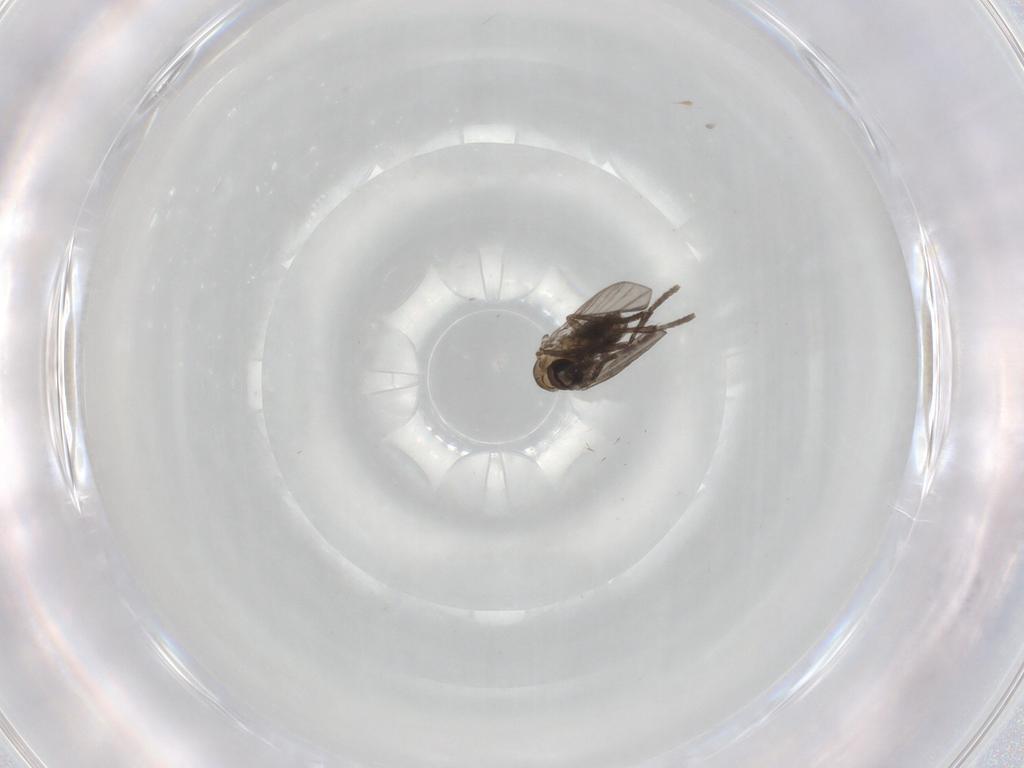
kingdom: Animalia
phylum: Arthropoda
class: Insecta
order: Diptera
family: Psychodidae
